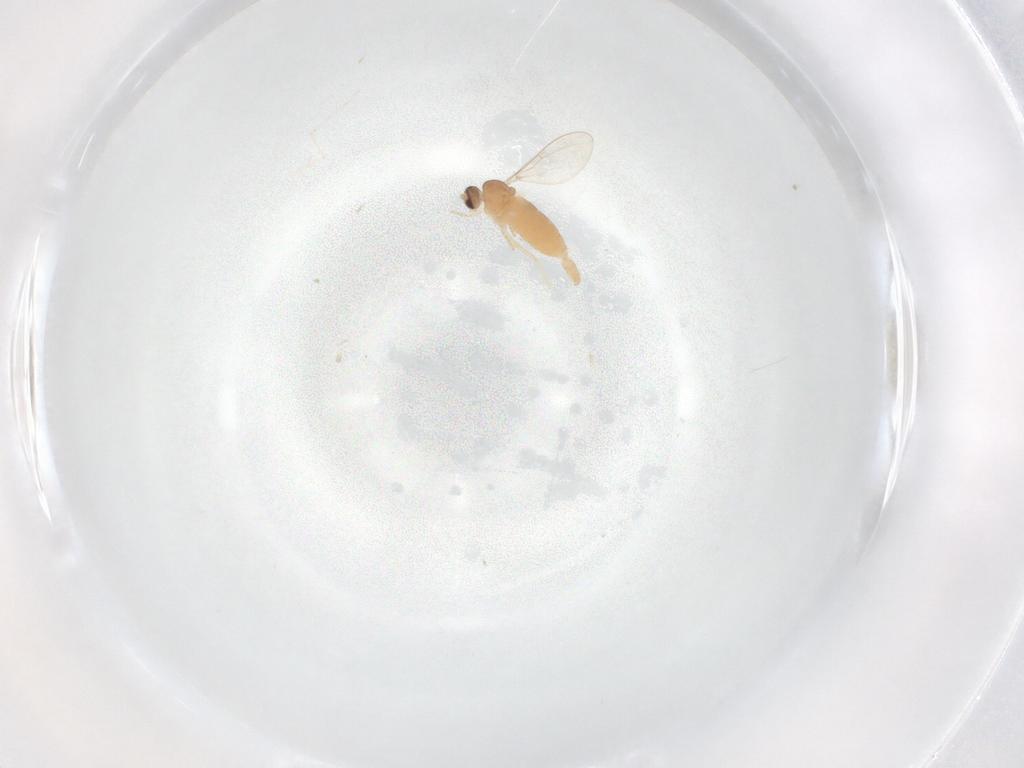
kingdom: Animalia
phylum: Arthropoda
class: Insecta
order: Diptera
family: Cecidomyiidae
